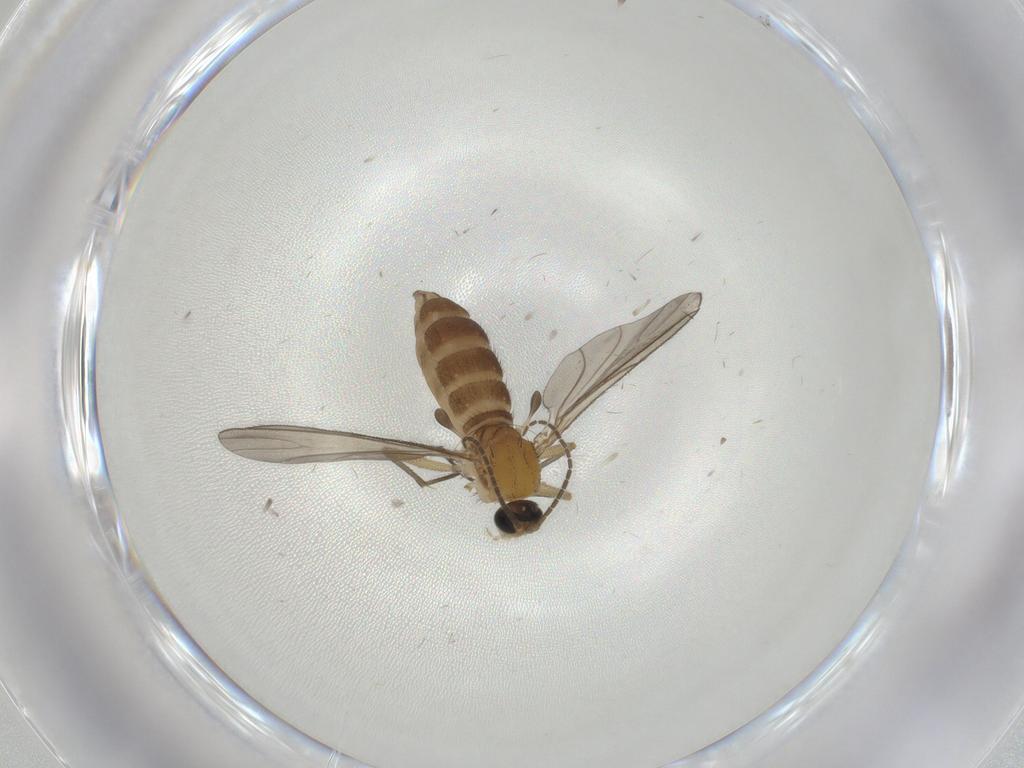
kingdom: Animalia
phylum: Arthropoda
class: Insecta
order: Diptera
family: Sciaridae
